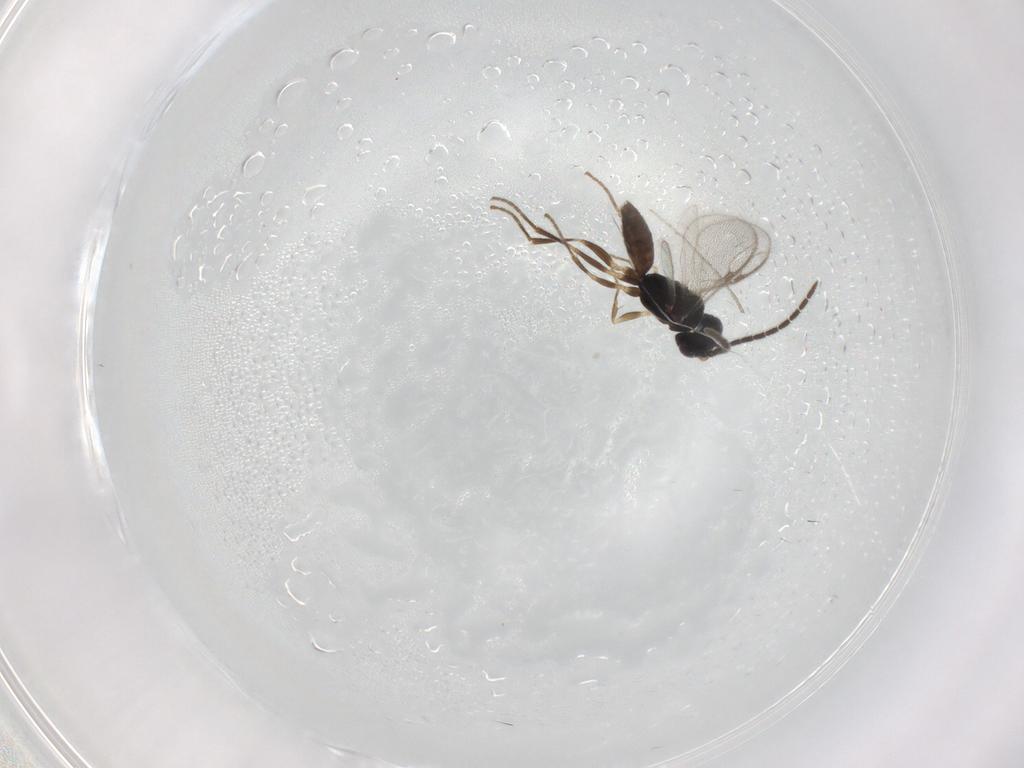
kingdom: Animalia
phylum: Arthropoda
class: Insecta
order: Hymenoptera
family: Dryinidae
